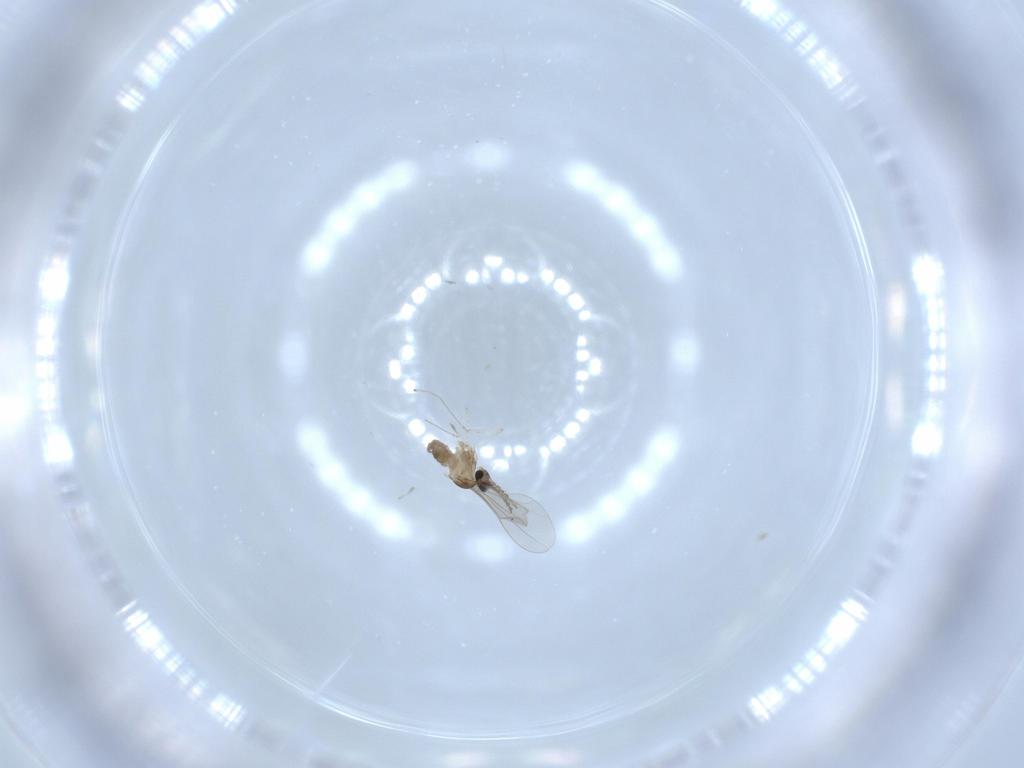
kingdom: Animalia
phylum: Arthropoda
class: Insecta
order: Diptera
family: Cecidomyiidae
